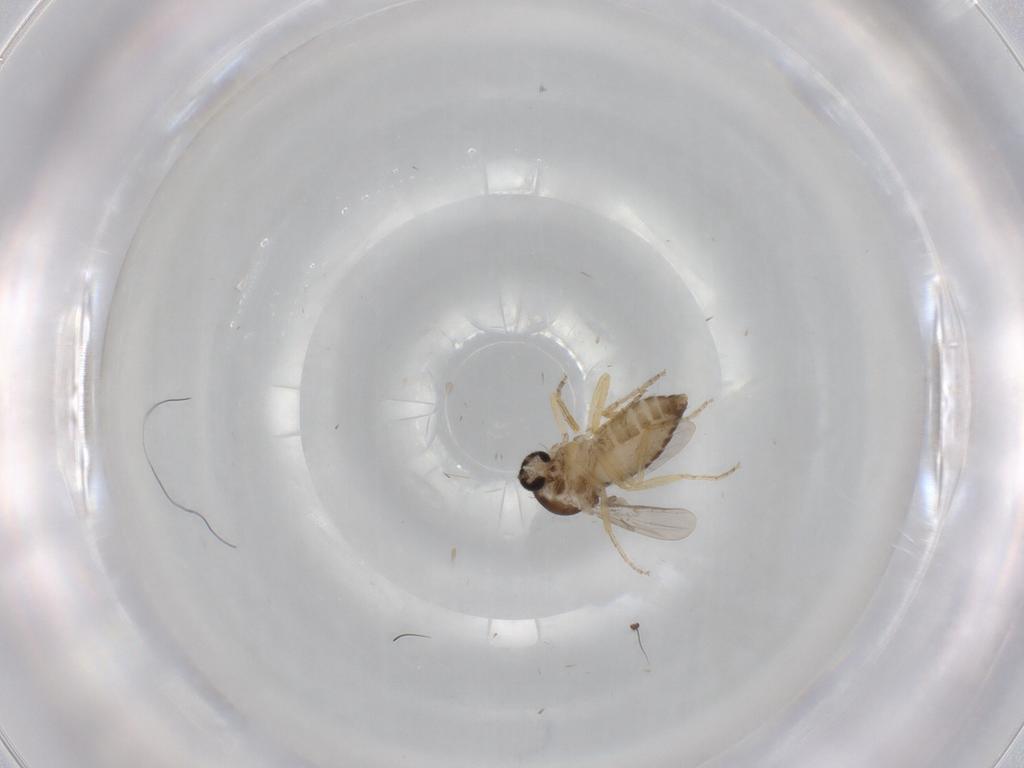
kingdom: Animalia
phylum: Arthropoda
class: Insecta
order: Diptera
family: Ceratopogonidae
